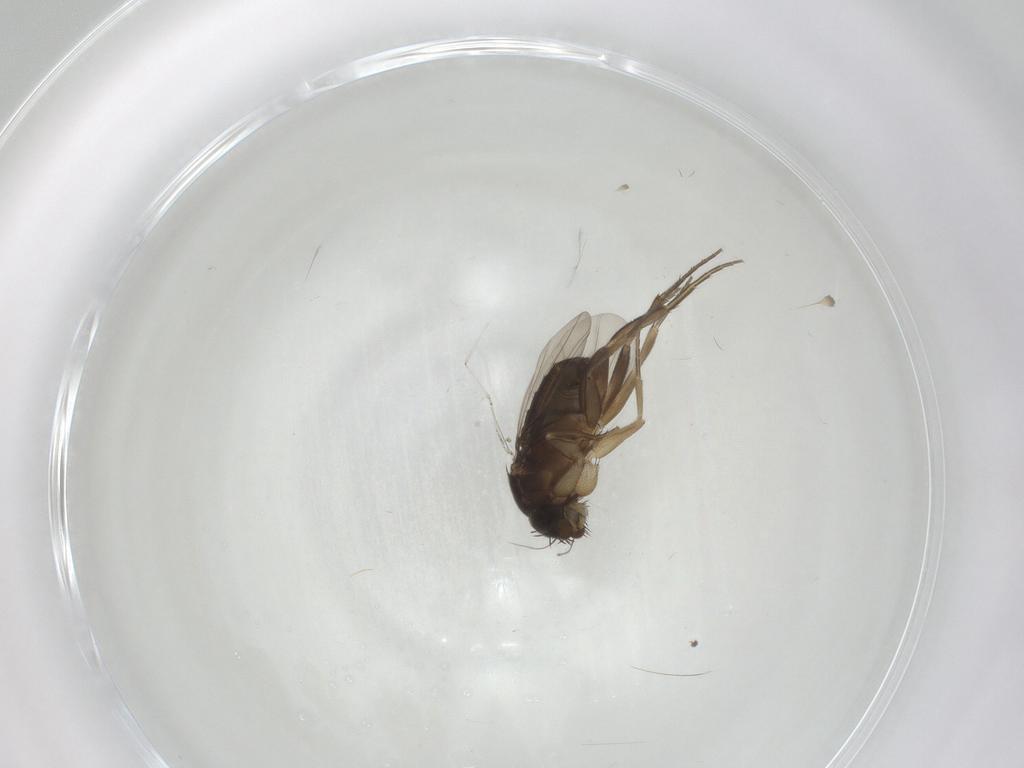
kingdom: Animalia
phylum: Arthropoda
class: Insecta
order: Diptera
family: Phoridae
